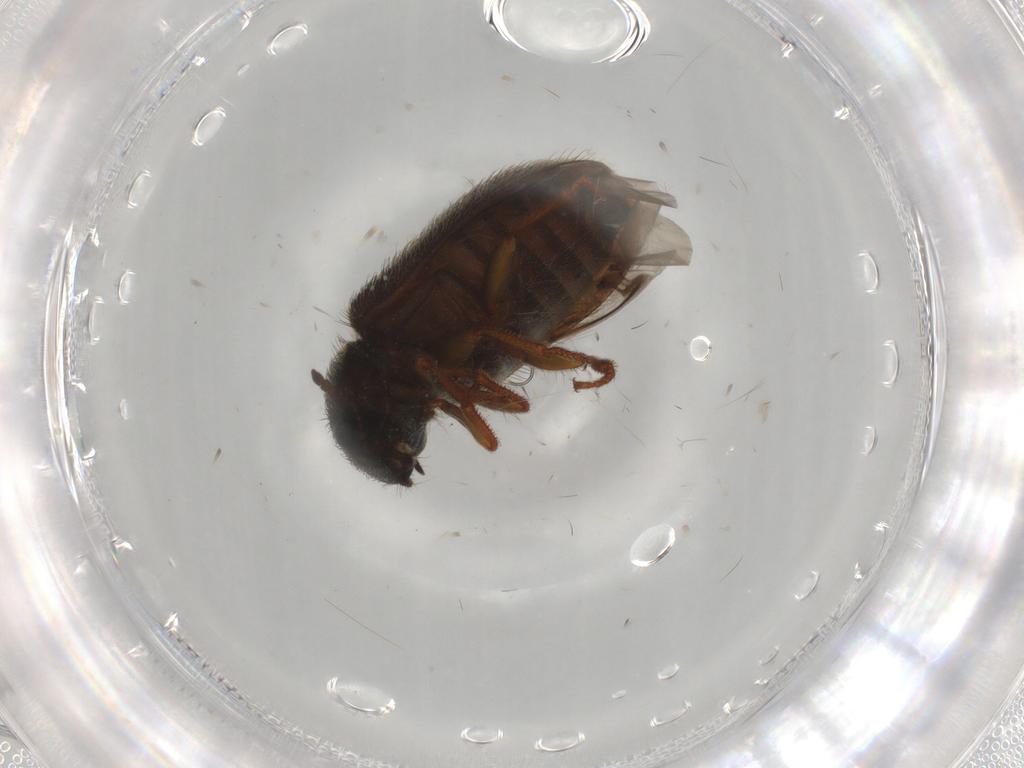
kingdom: Animalia
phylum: Arthropoda
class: Insecta
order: Coleoptera
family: Melyridae
